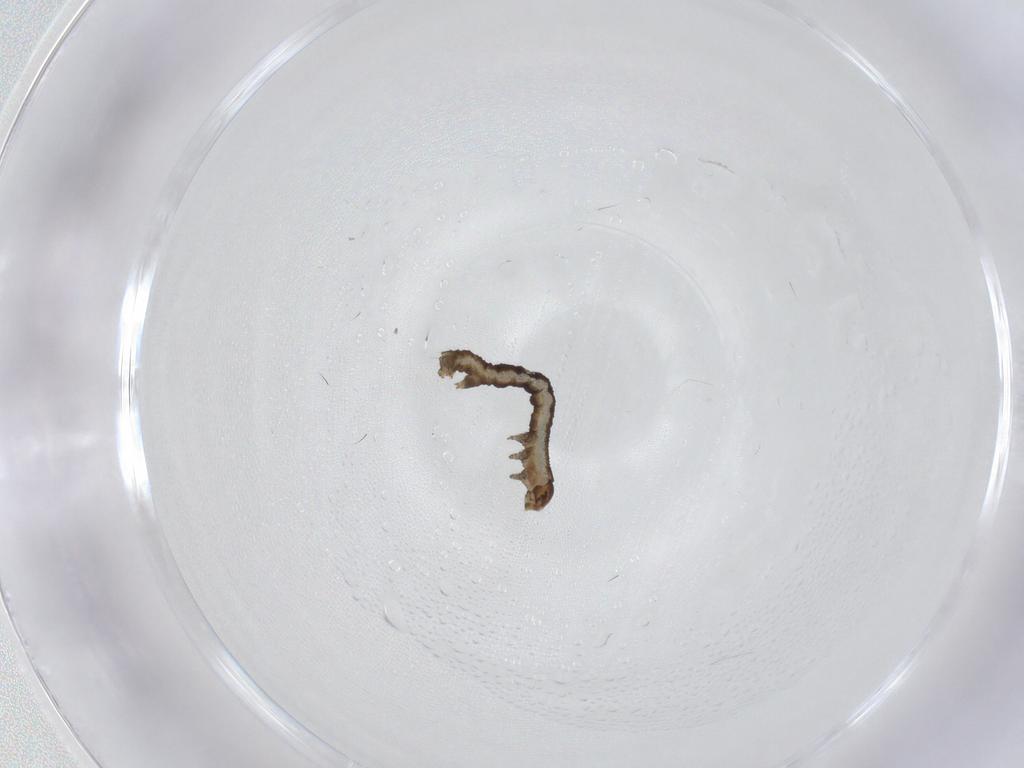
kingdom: Animalia
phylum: Arthropoda
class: Insecta
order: Lepidoptera
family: Geometridae
